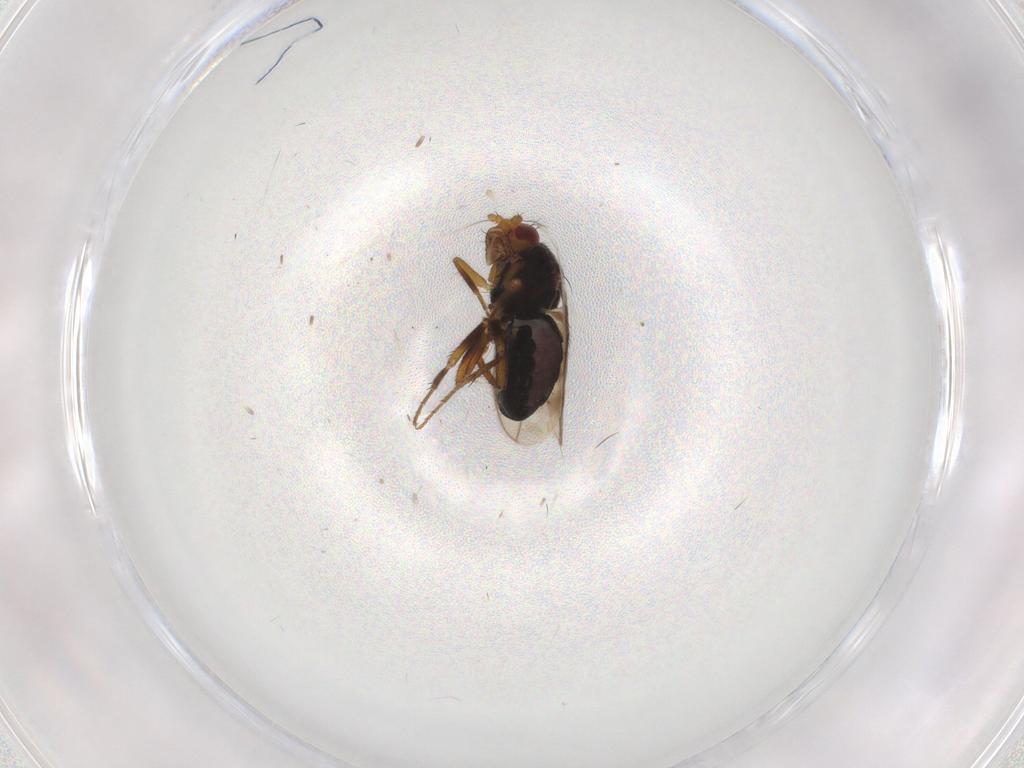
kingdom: Animalia
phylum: Arthropoda
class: Insecta
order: Diptera
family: Sphaeroceridae
